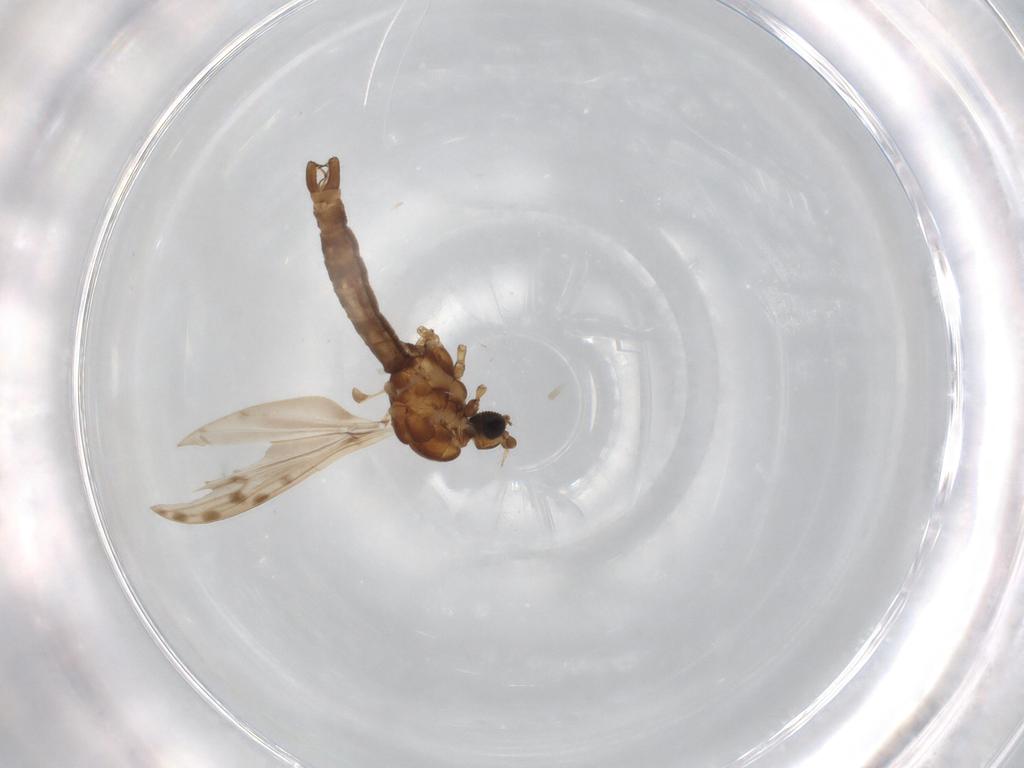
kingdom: Animalia
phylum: Arthropoda
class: Insecta
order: Diptera
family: Limoniidae
